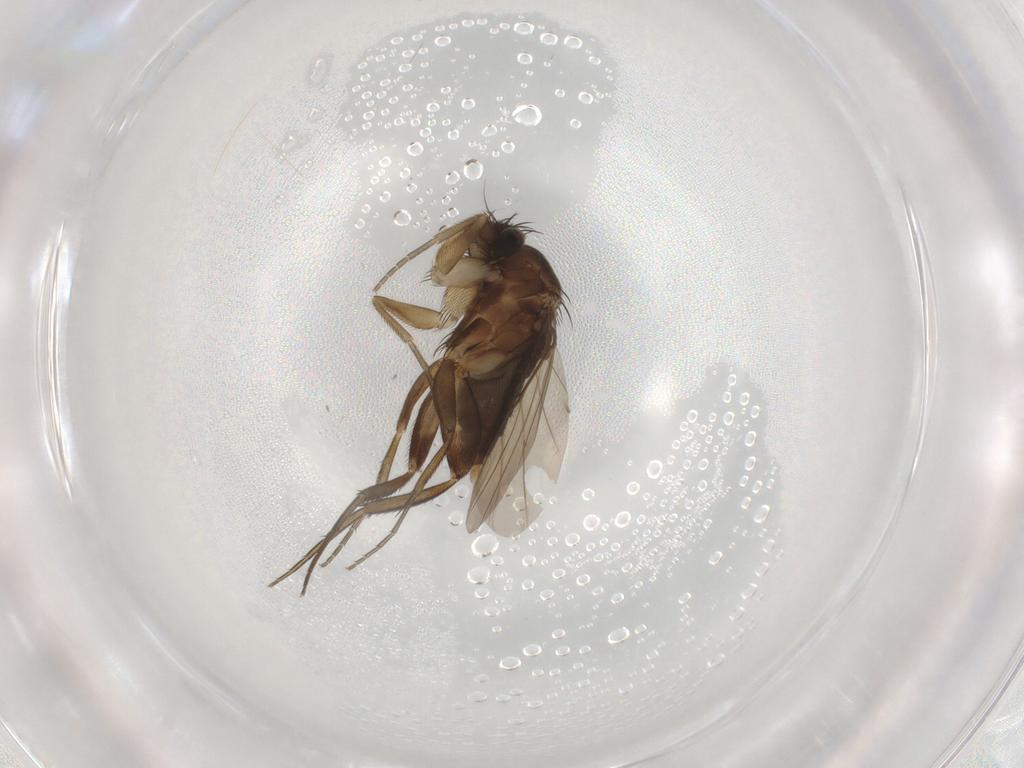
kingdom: Animalia
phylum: Arthropoda
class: Insecta
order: Diptera
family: Phoridae
